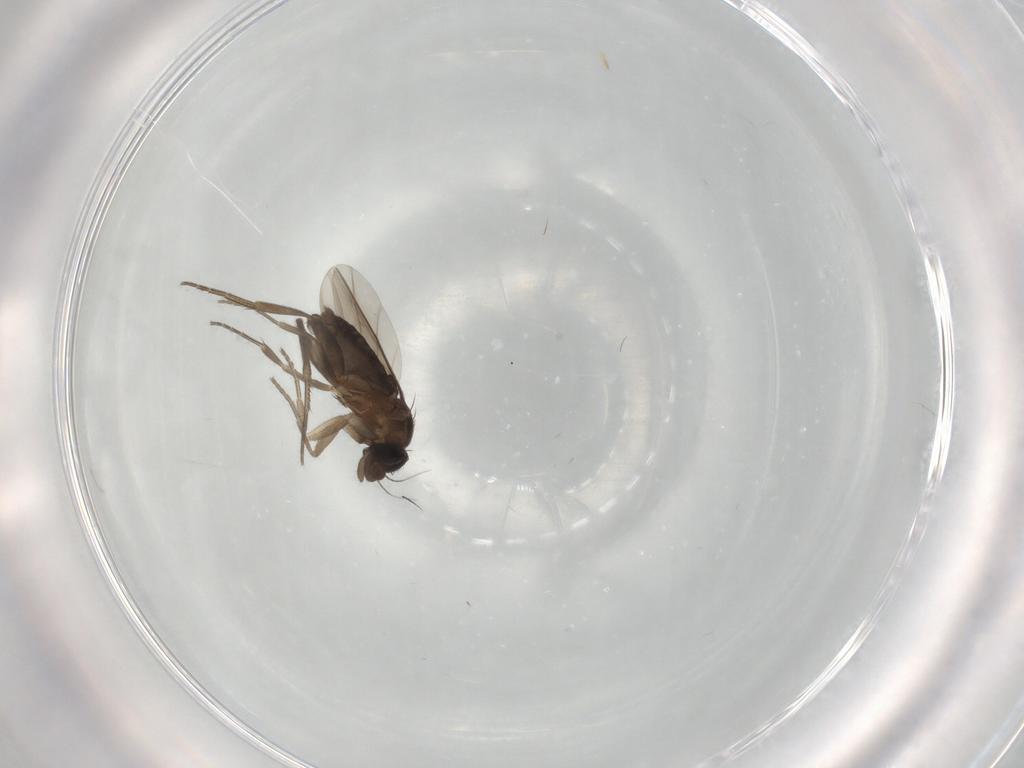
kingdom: Animalia
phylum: Arthropoda
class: Insecta
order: Diptera
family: Phoridae
